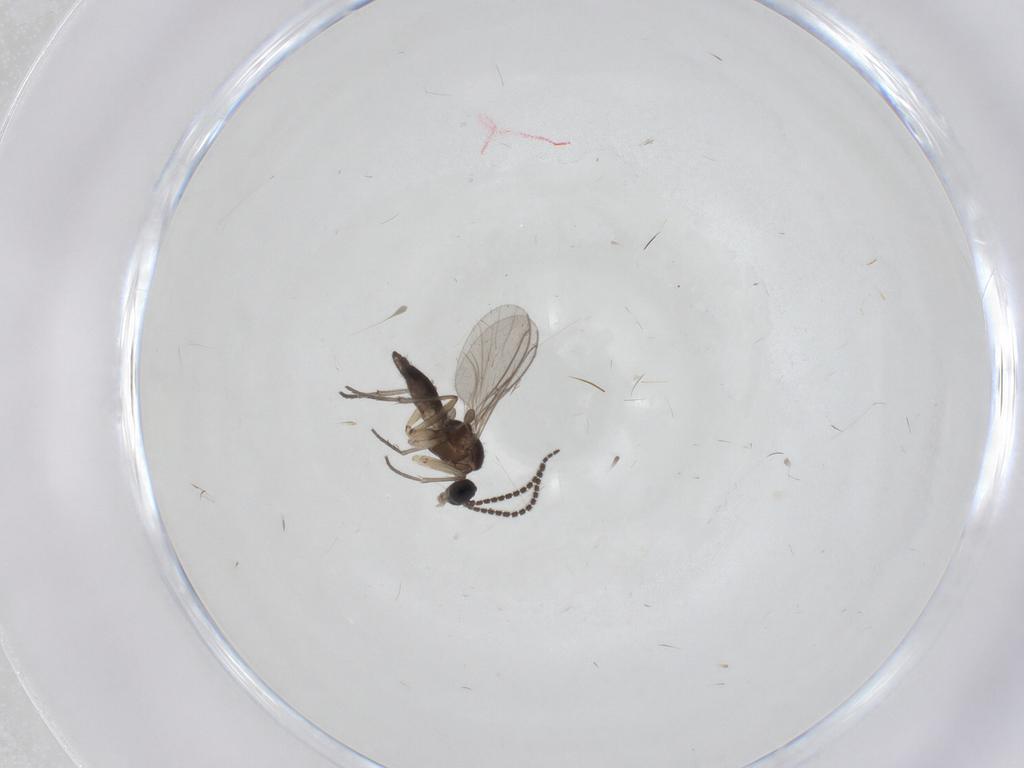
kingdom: Animalia
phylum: Arthropoda
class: Insecta
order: Diptera
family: Sciaridae
